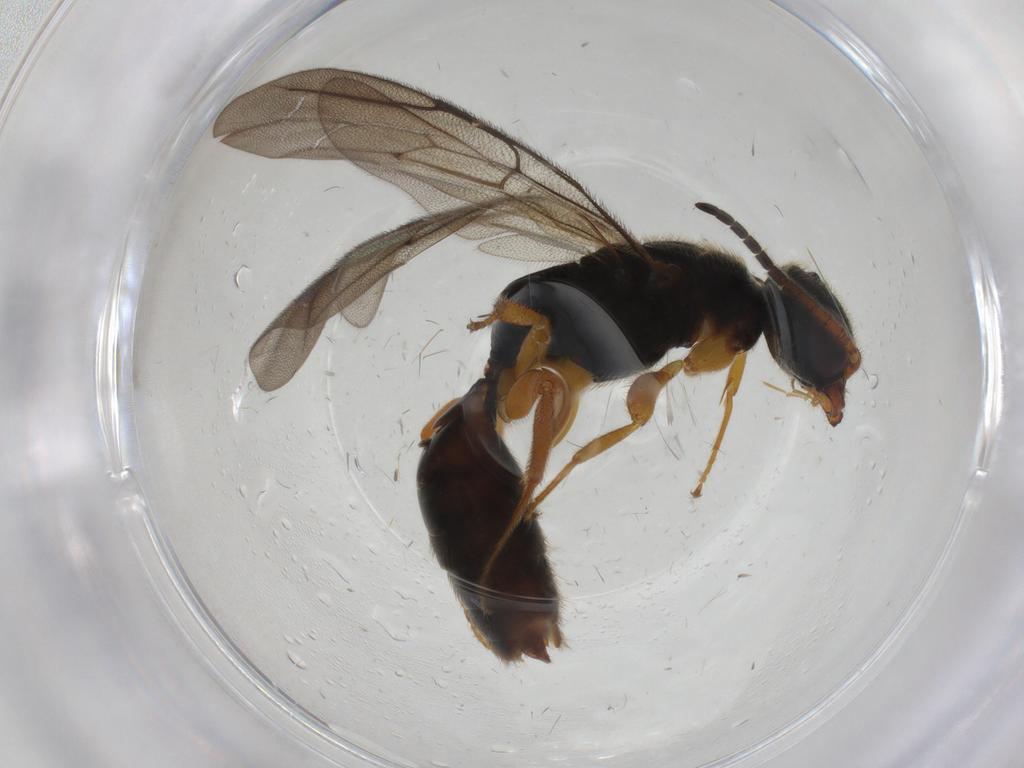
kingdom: Animalia
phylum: Arthropoda
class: Insecta
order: Hymenoptera
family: Bethylidae
